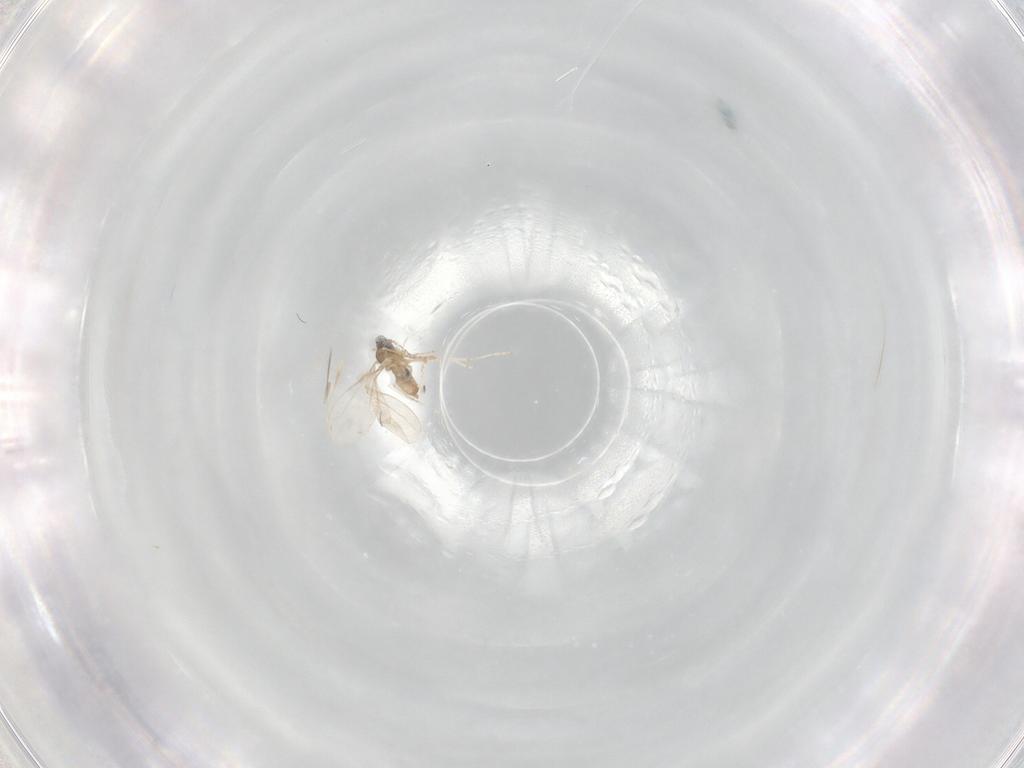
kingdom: Animalia
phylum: Arthropoda
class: Insecta
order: Diptera
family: Cecidomyiidae
